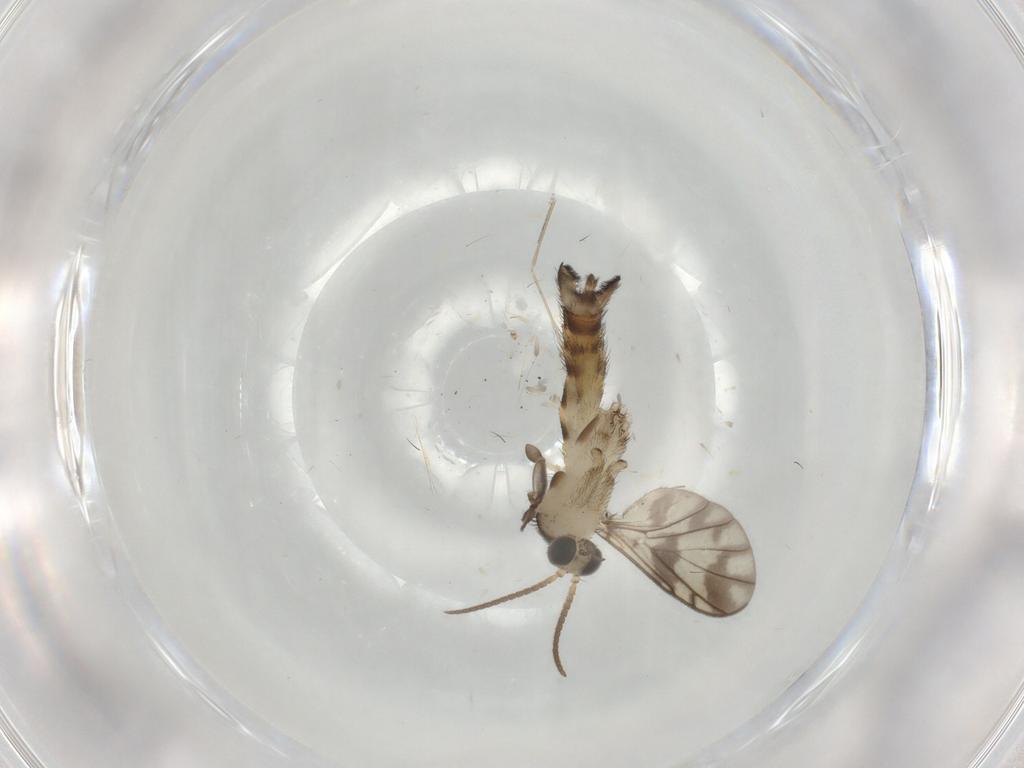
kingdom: Animalia
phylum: Arthropoda
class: Insecta
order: Diptera
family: Keroplatidae
